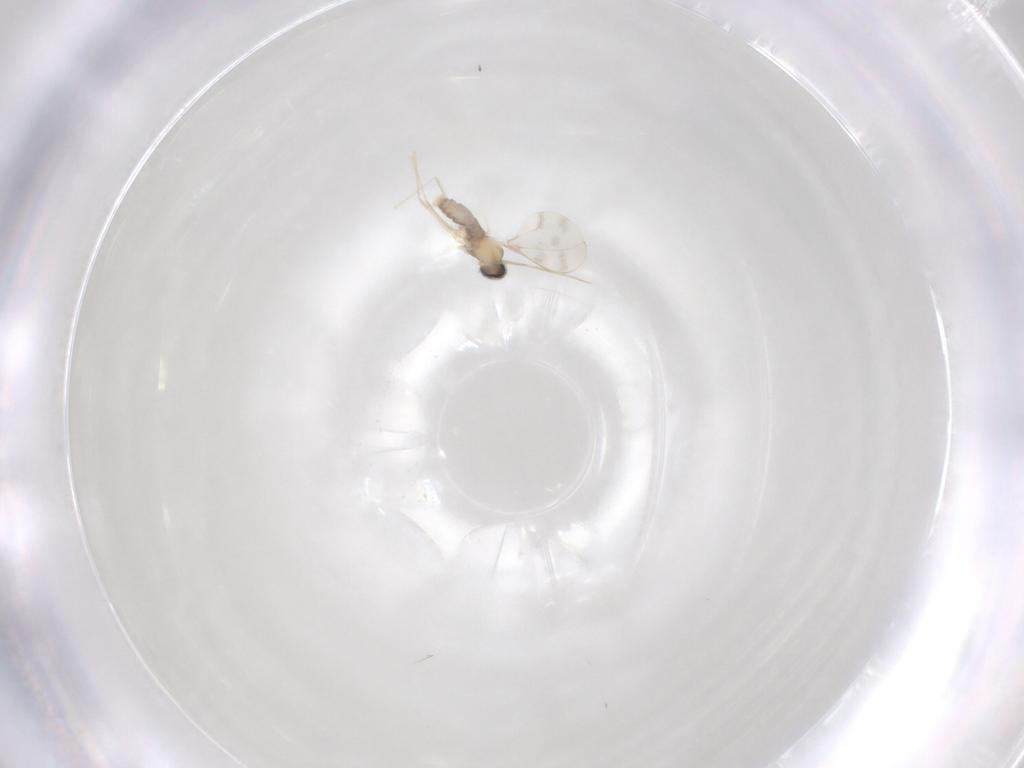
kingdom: Animalia
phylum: Arthropoda
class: Insecta
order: Diptera
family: Cecidomyiidae
